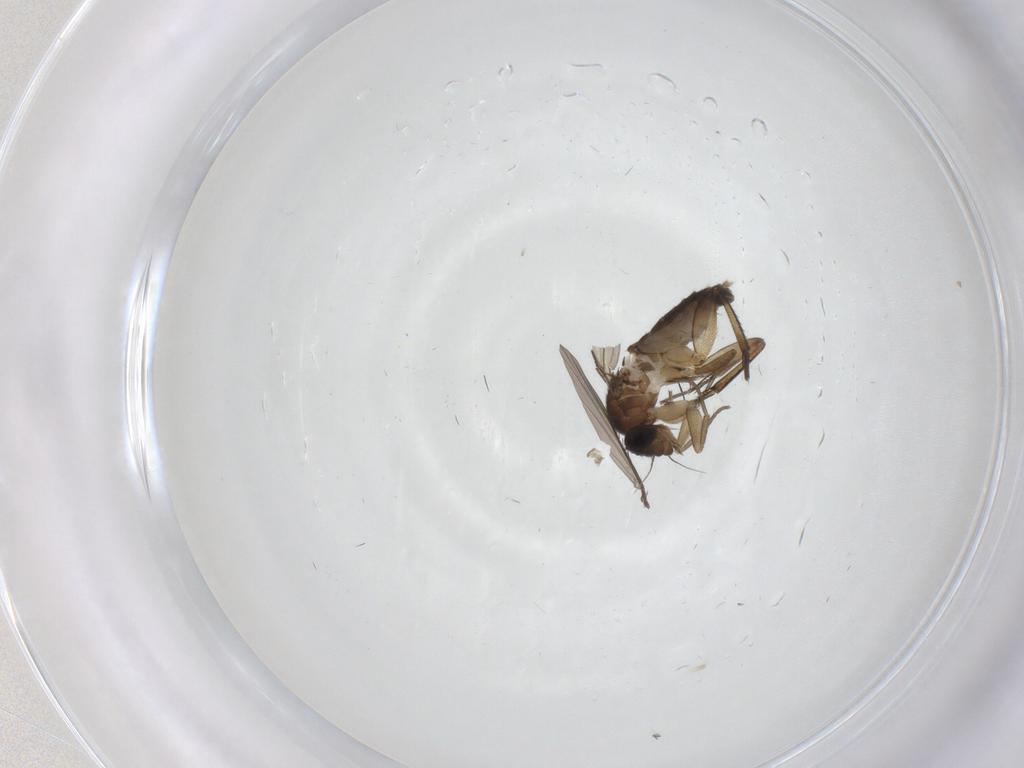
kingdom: Animalia
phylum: Arthropoda
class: Insecta
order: Diptera
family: Phoridae
